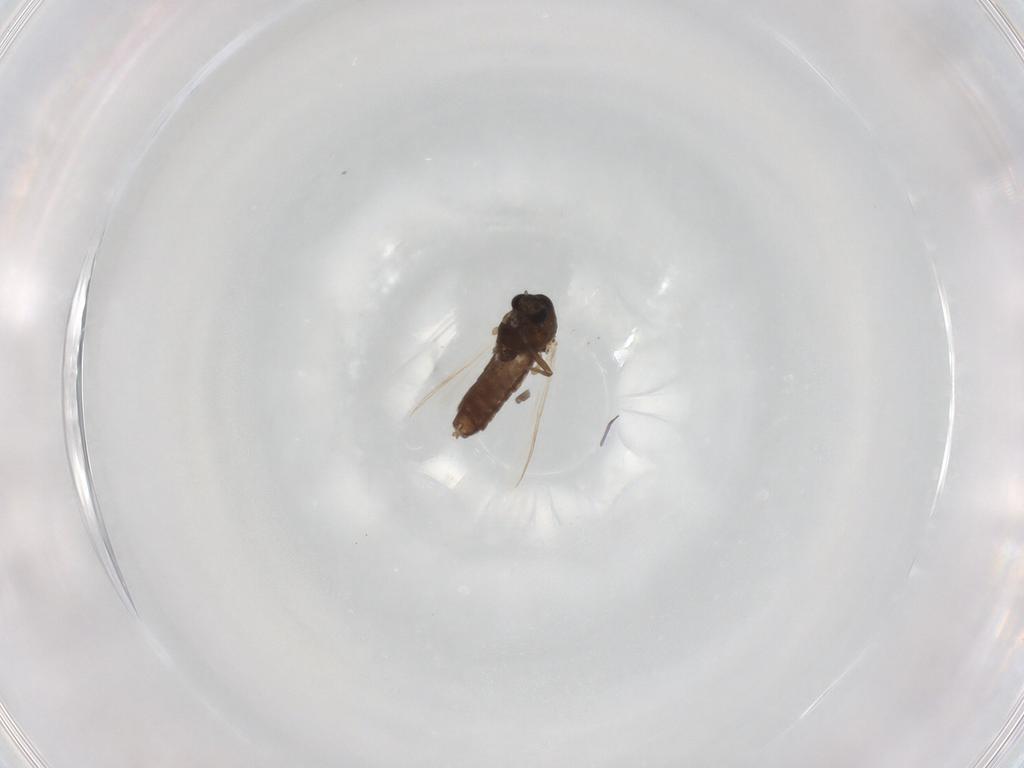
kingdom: Animalia
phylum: Arthropoda
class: Insecta
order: Diptera
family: Chironomidae
